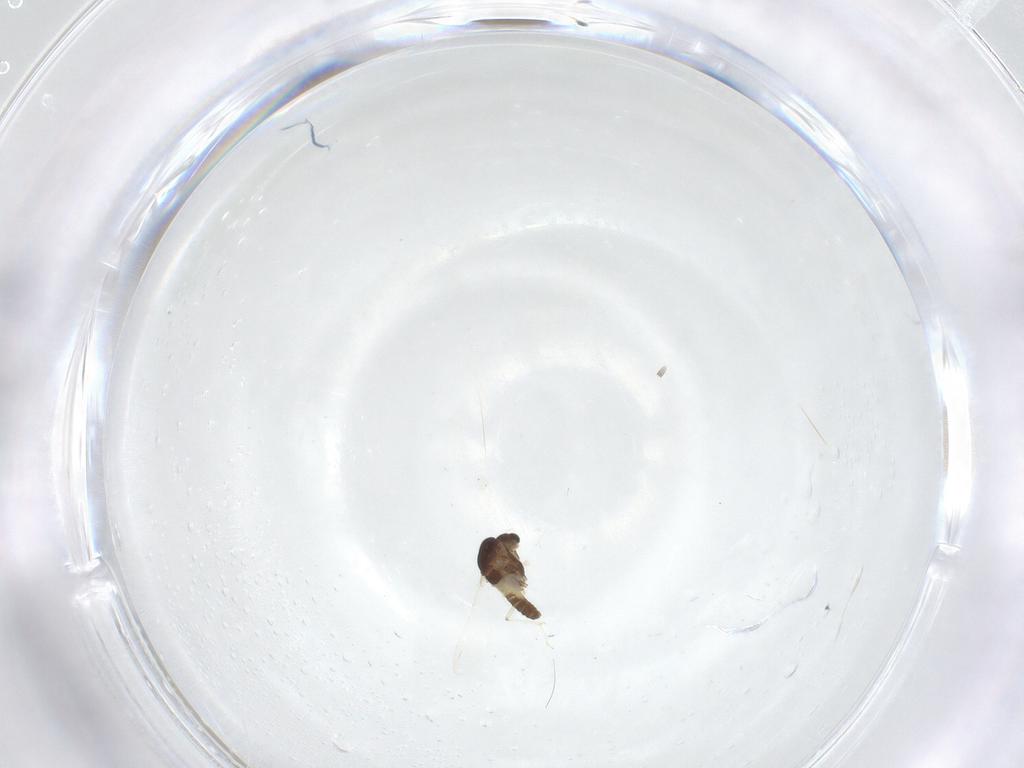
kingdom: Animalia
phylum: Arthropoda
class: Insecta
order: Diptera
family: Chironomidae
